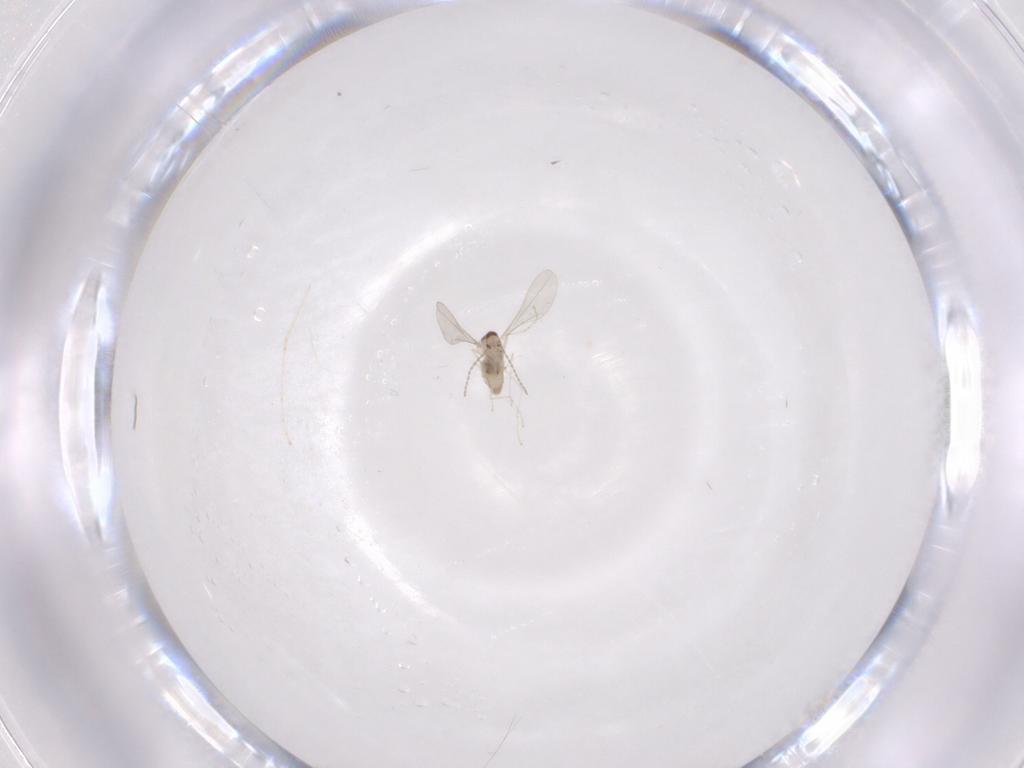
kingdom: Animalia
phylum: Arthropoda
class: Insecta
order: Diptera
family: Cecidomyiidae
